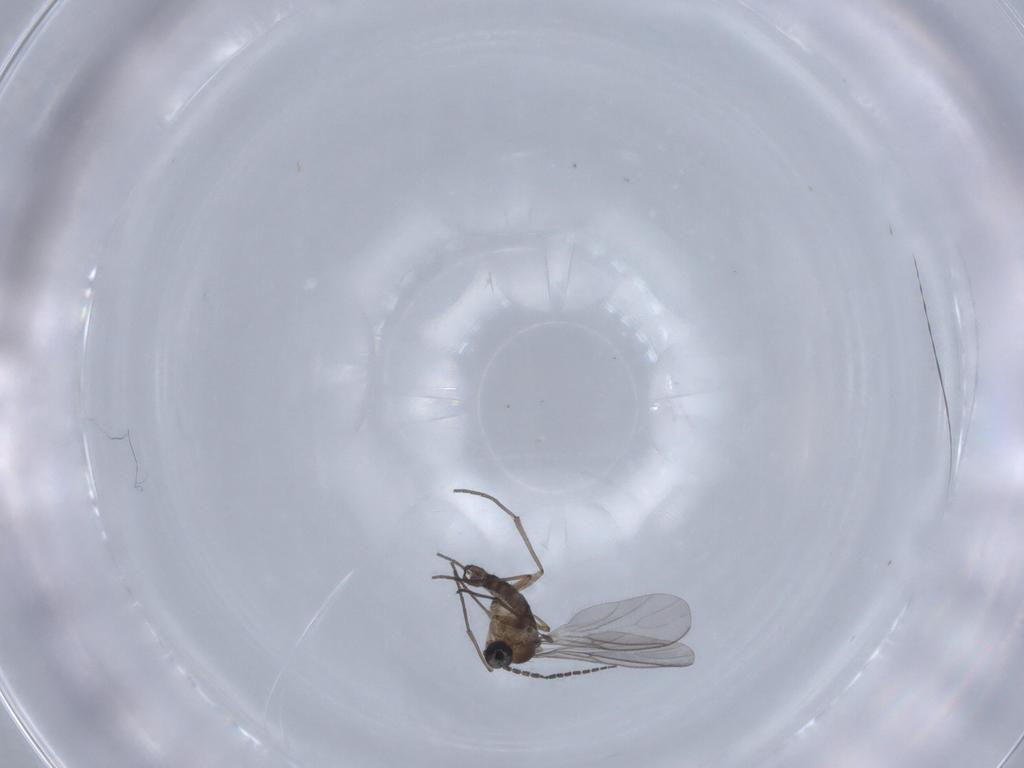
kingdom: Animalia
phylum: Arthropoda
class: Insecta
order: Diptera
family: Sciaridae
